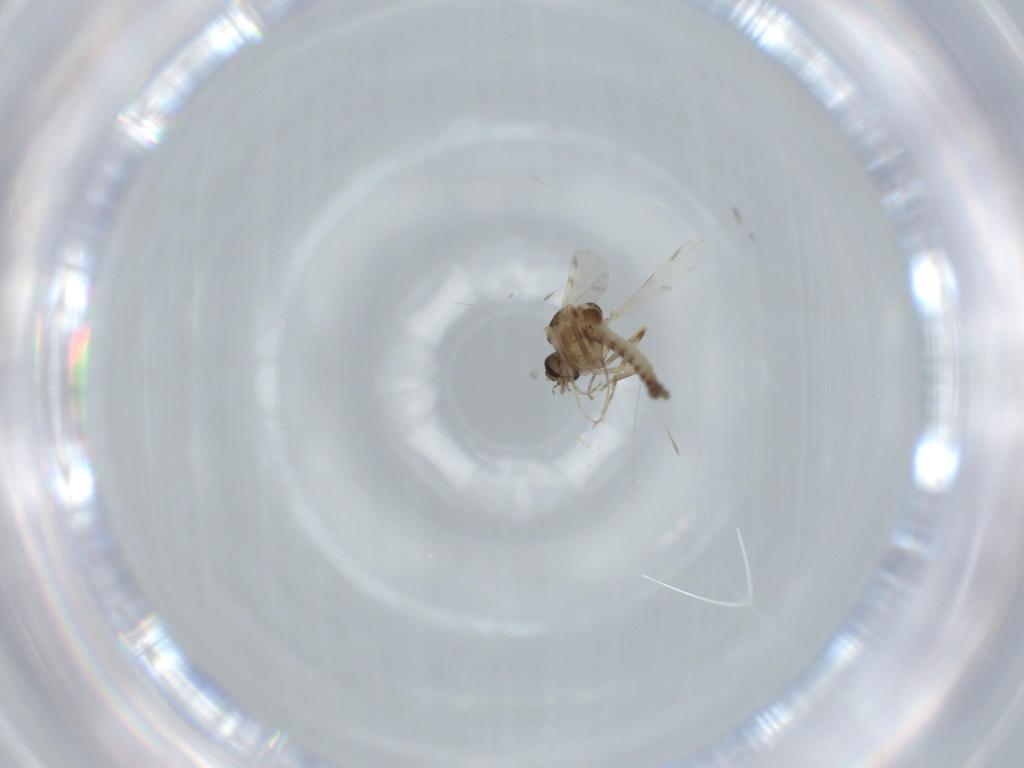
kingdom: Animalia
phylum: Arthropoda
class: Insecta
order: Diptera
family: Ceratopogonidae
